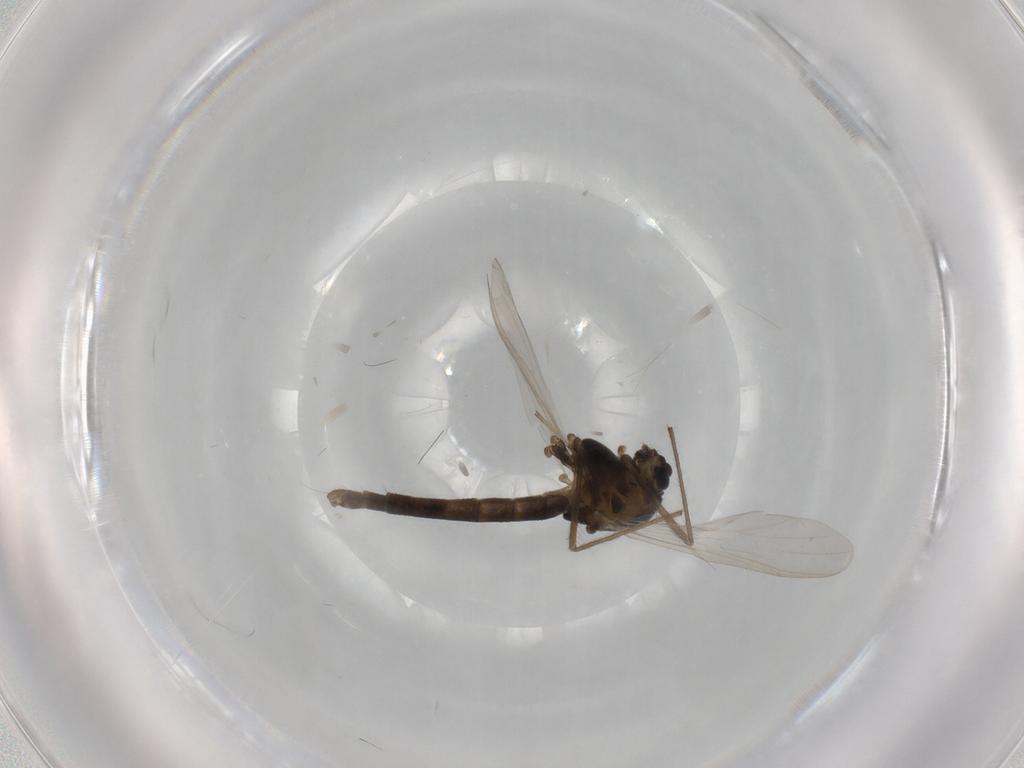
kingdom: Animalia
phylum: Arthropoda
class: Insecta
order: Diptera
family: Chironomidae
